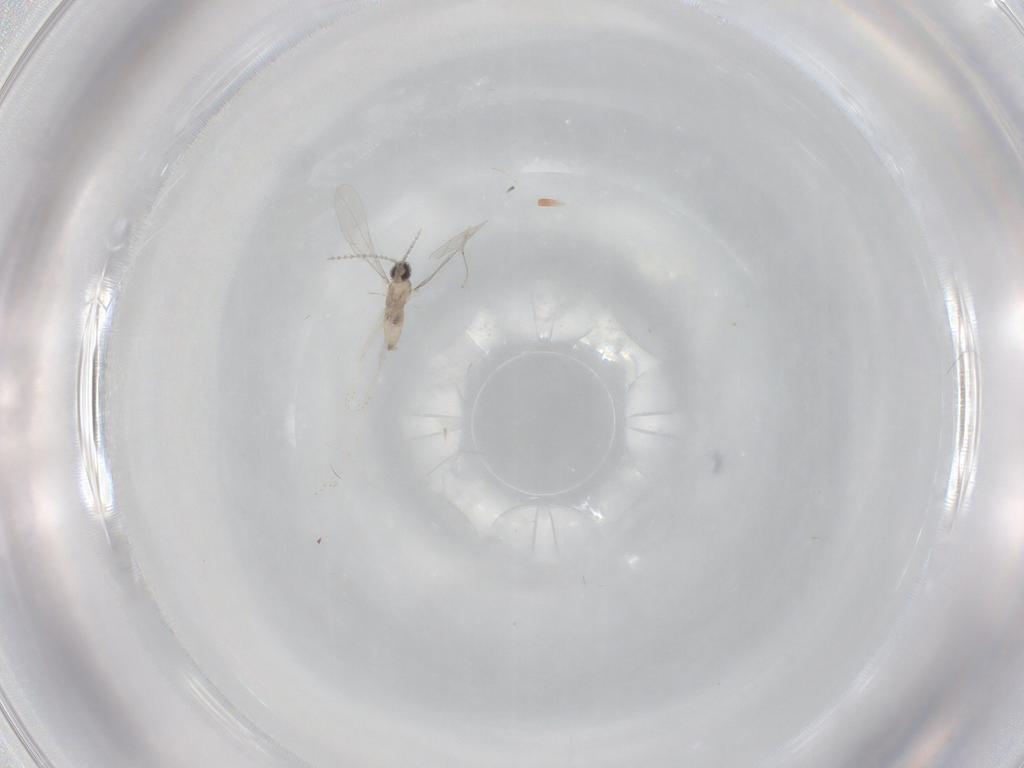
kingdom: Animalia
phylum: Arthropoda
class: Insecta
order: Diptera
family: Cecidomyiidae
